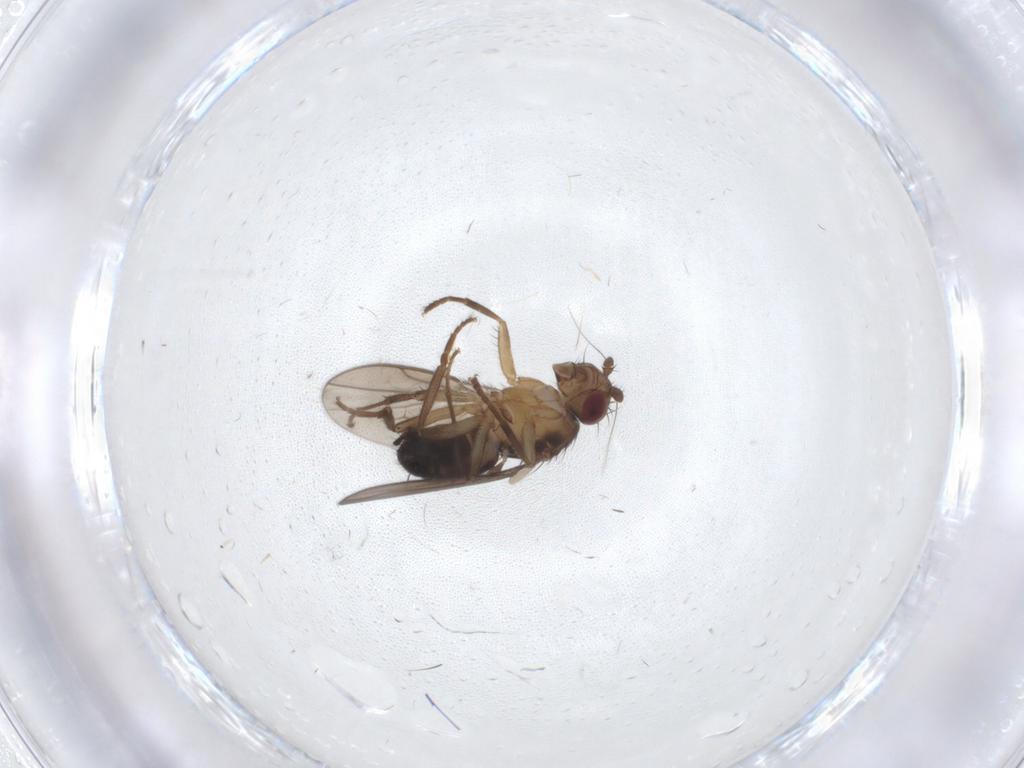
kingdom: Animalia
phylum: Arthropoda
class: Insecta
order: Diptera
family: Sphaeroceridae
